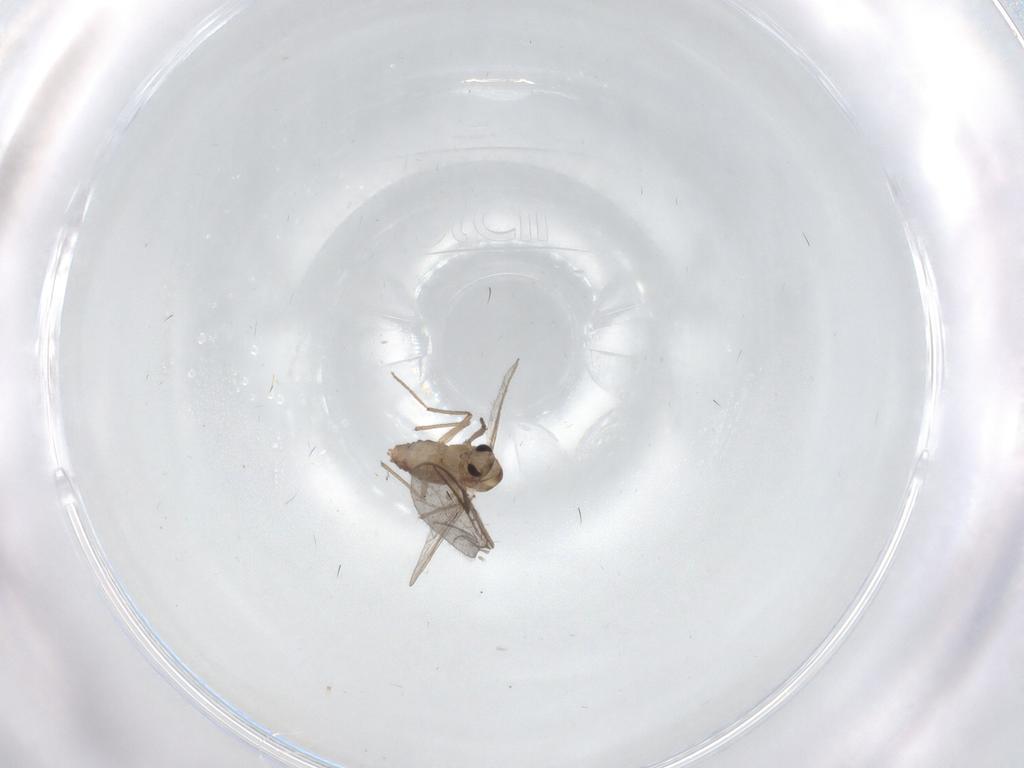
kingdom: Animalia
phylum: Arthropoda
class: Insecta
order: Diptera
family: Chironomidae
